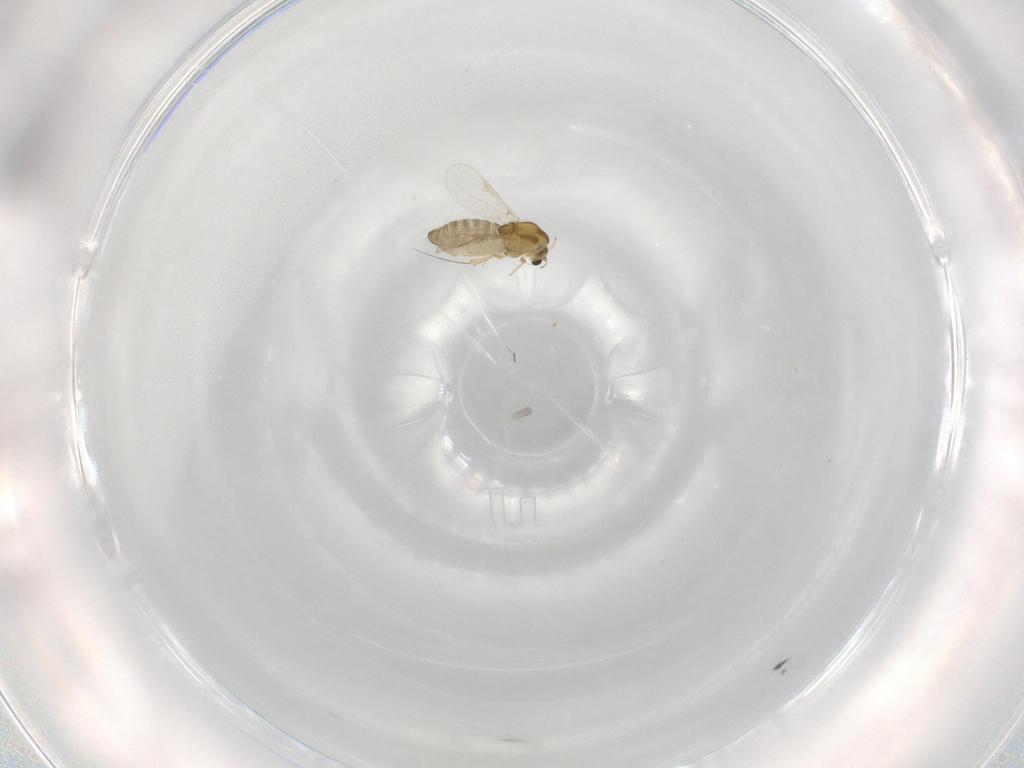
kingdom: Animalia
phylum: Arthropoda
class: Insecta
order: Diptera
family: Chironomidae
